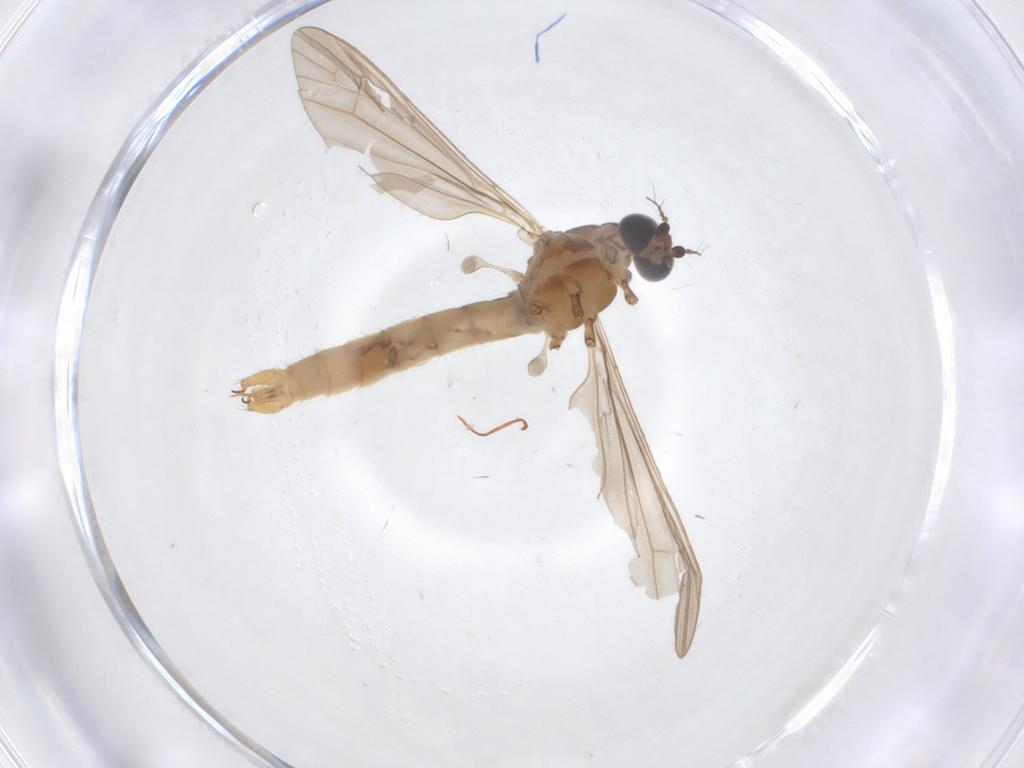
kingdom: Animalia
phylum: Arthropoda
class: Insecta
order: Diptera
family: Limoniidae
